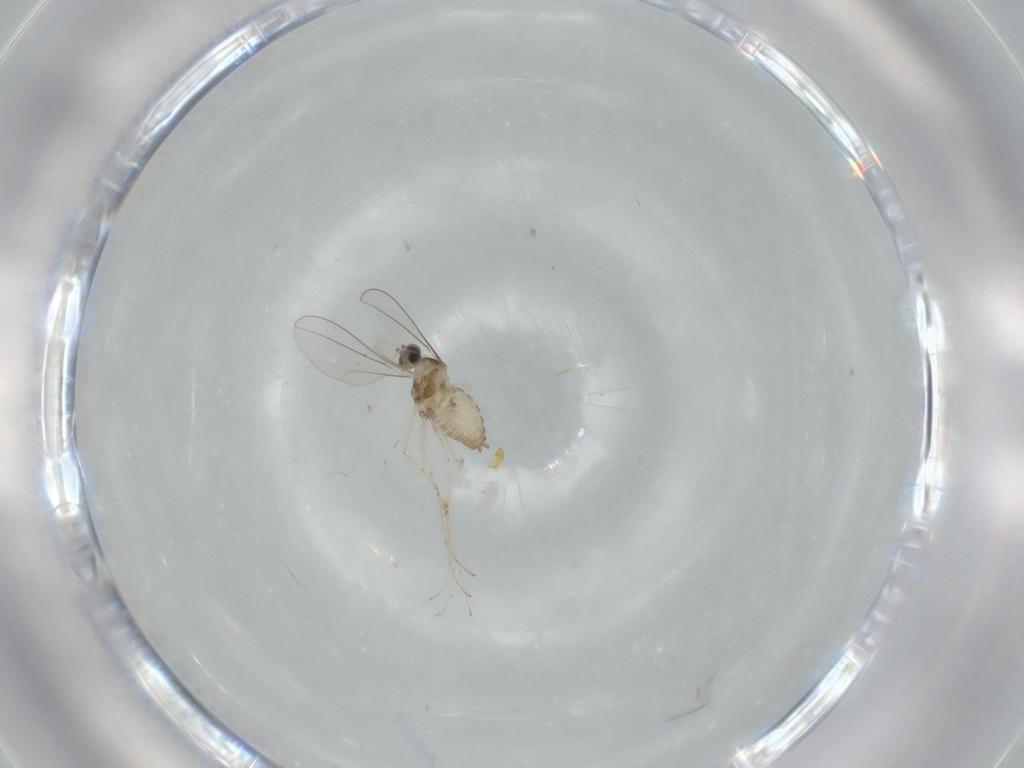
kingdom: Animalia
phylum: Arthropoda
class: Insecta
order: Diptera
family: Cecidomyiidae
